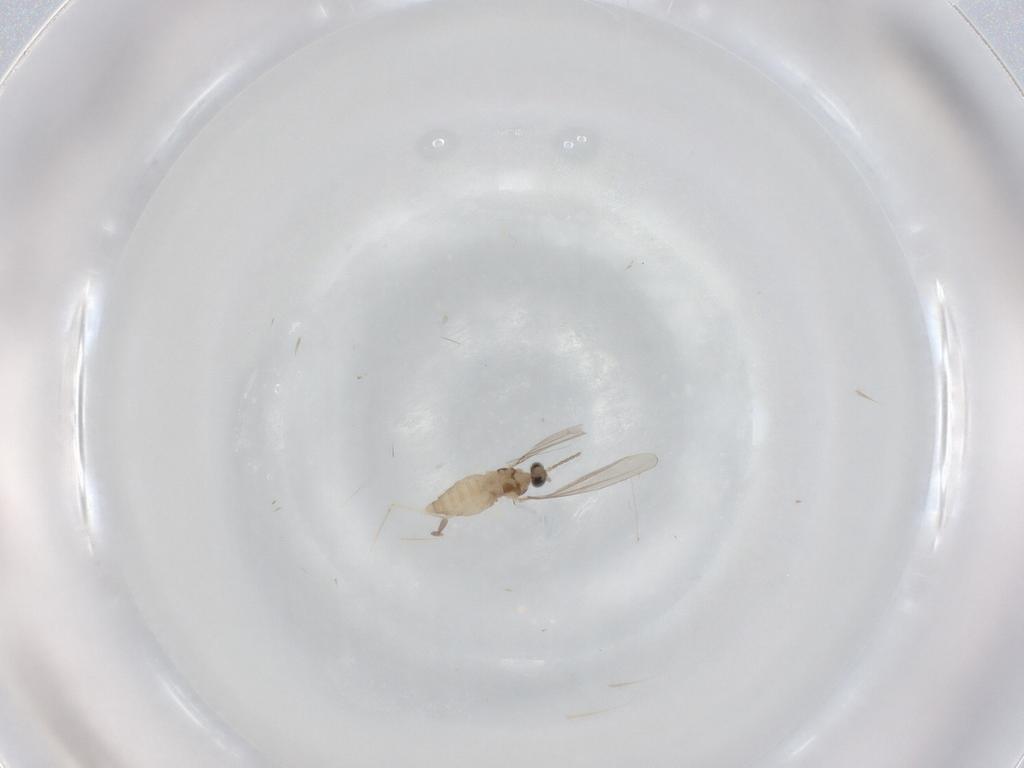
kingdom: Animalia
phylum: Arthropoda
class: Insecta
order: Diptera
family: Cecidomyiidae
